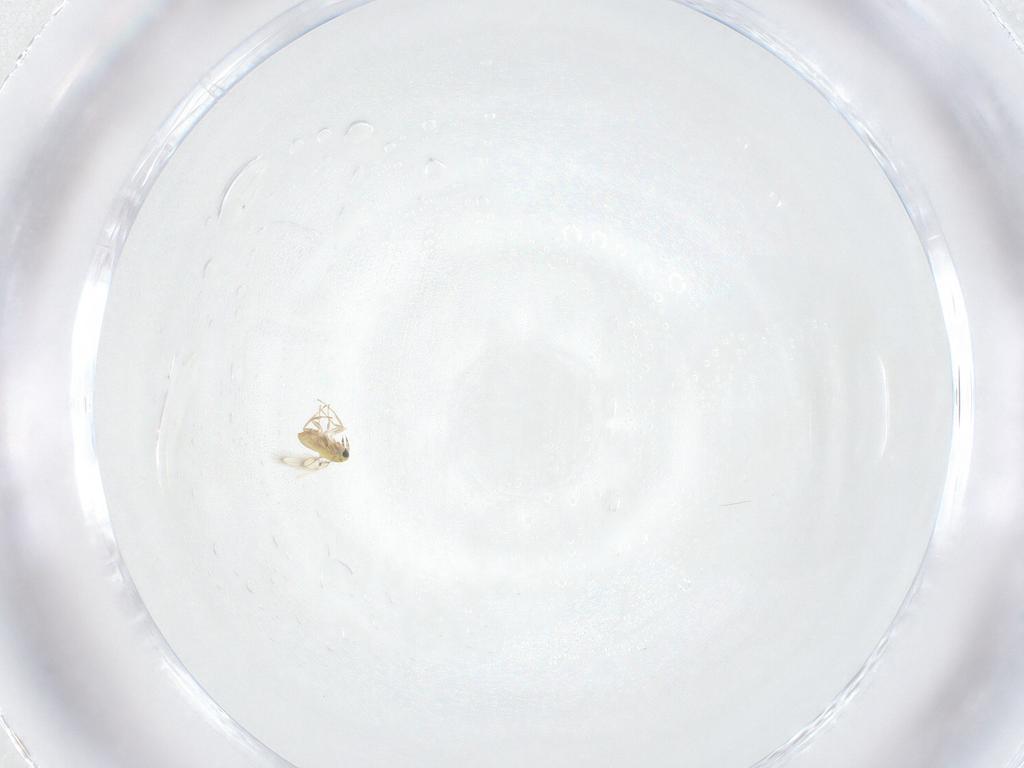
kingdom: Animalia
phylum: Arthropoda
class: Insecta
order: Hymenoptera
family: Trichogrammatidae
